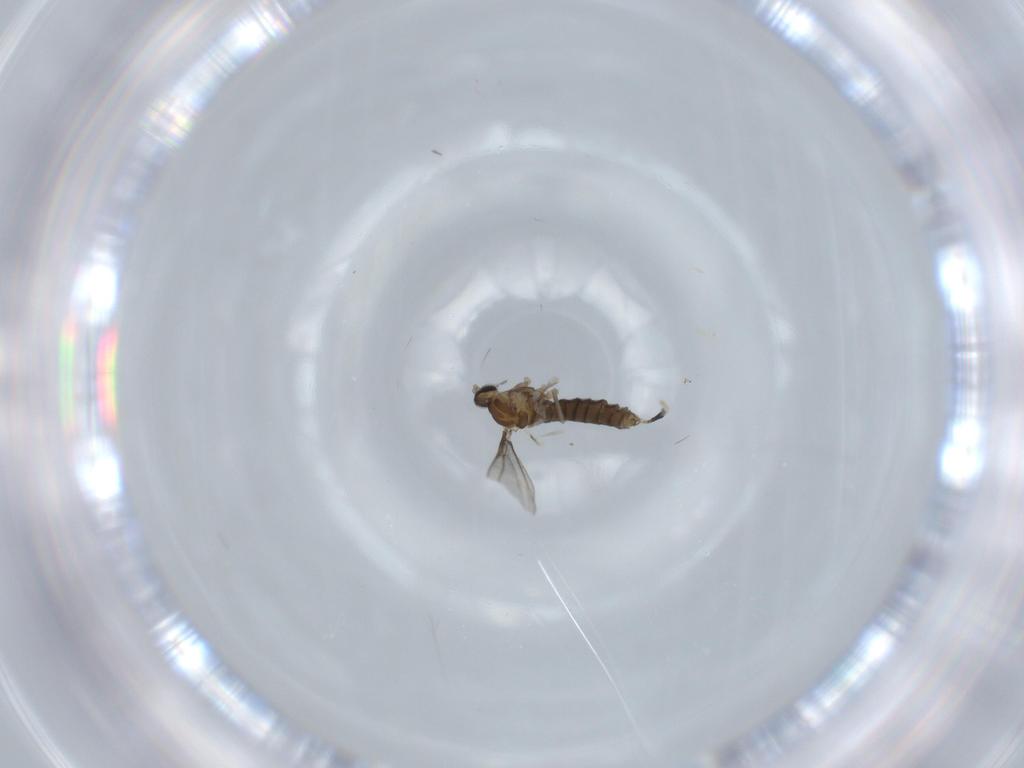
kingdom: Animalia
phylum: Arthropoda
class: Insecta
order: Diptera
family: Cecidomyiidae
